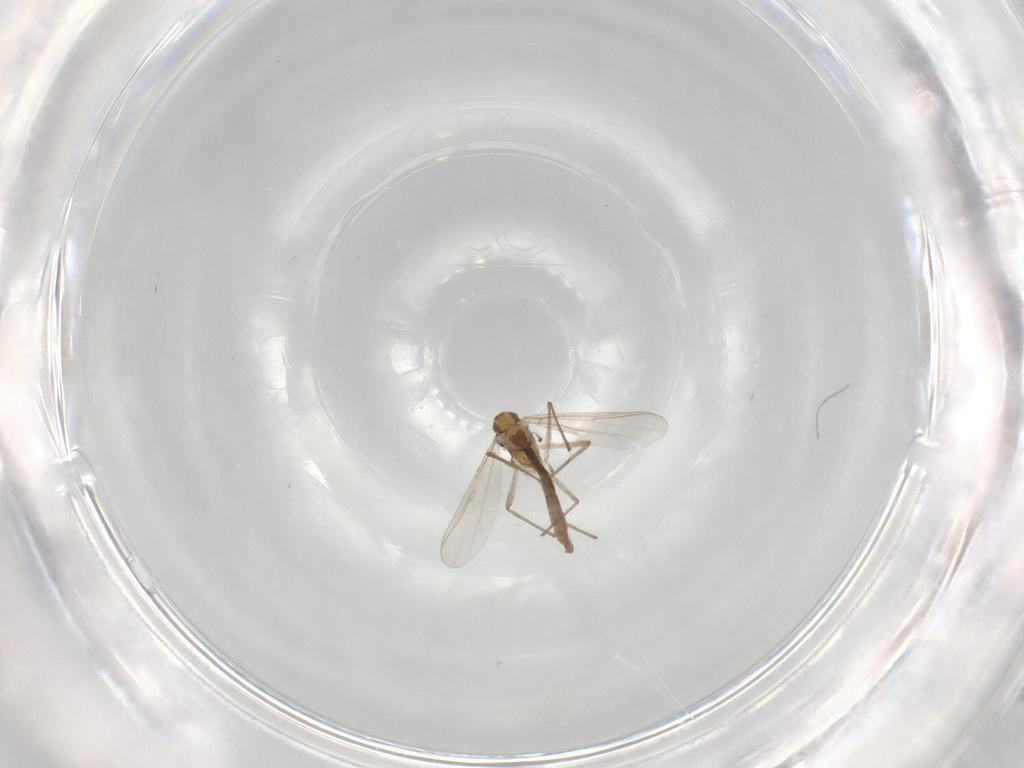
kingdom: Animalia
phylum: Arthropoda
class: Insecta
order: Diptera
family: Chironomidae
